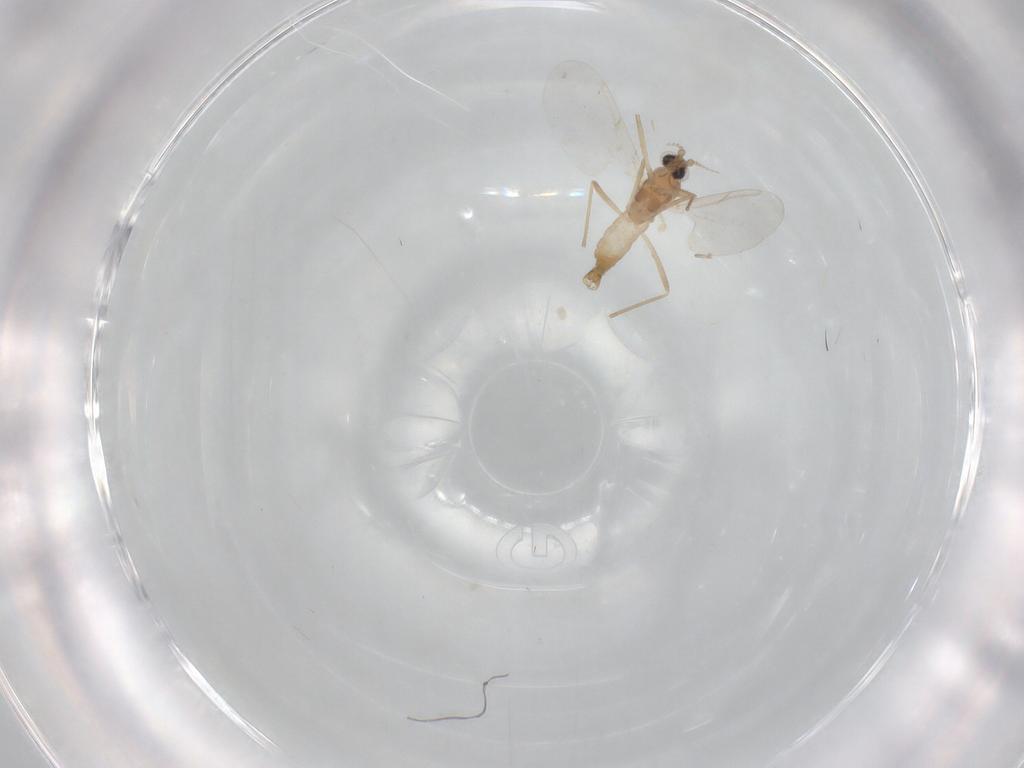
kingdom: Animalia
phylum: Arthropoda
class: Insecta
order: Diptera
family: Cecidomyiidae
